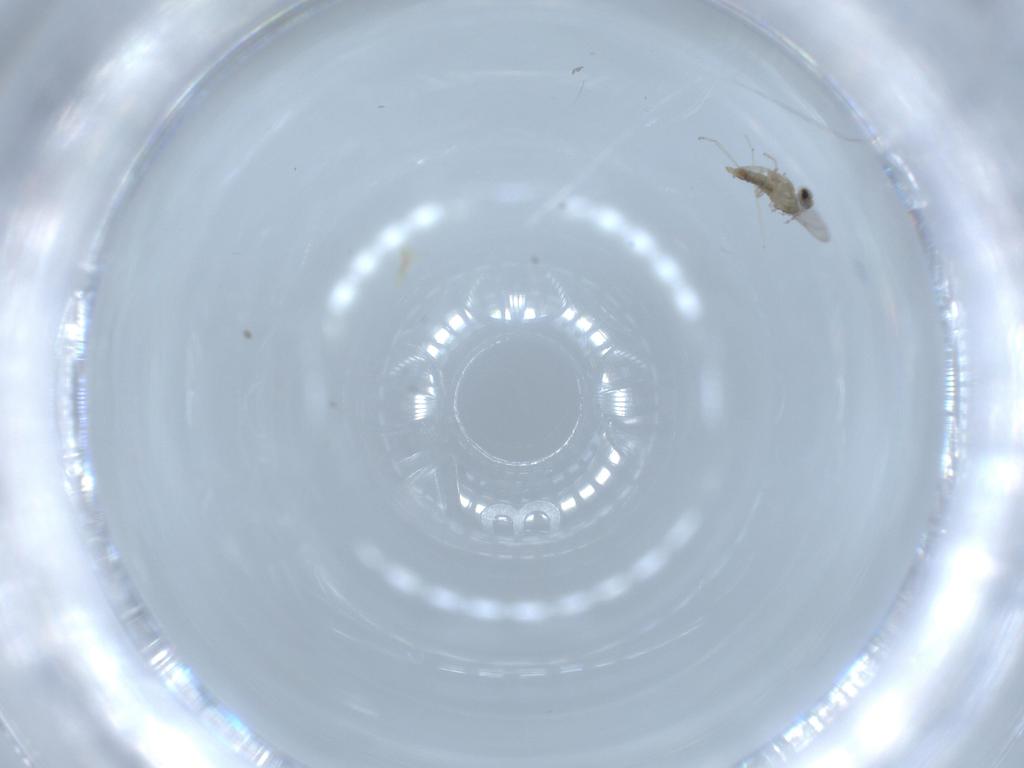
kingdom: Animalia
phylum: Arthropoda
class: Insecta
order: Diptera
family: Cecidomyiidae
